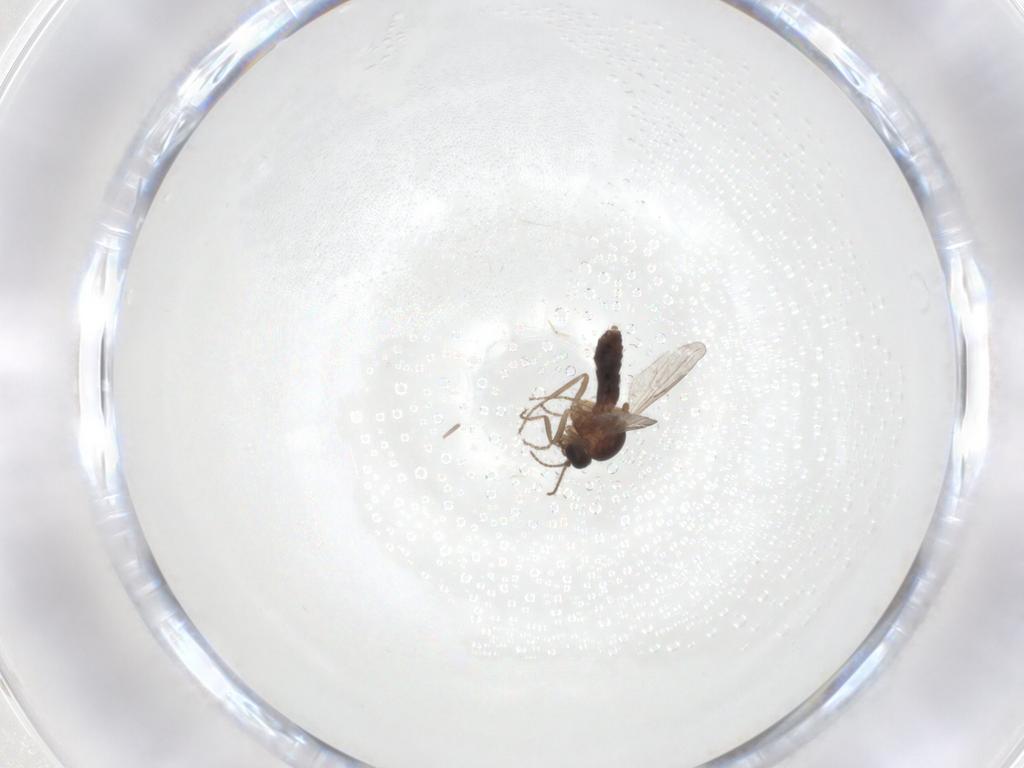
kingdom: Animalia
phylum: Arthropoda
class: Insecta
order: Diptera
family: Ceratopogonidae
